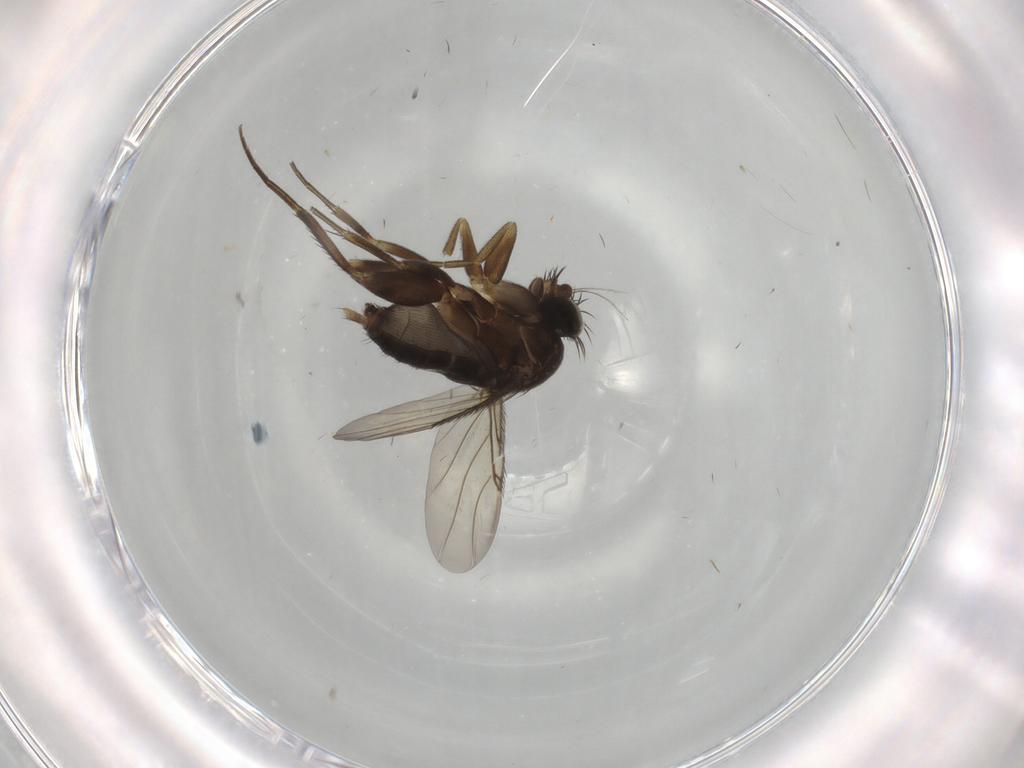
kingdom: Animalia
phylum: Arthropoda
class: Insecta
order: Diptera
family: Phoridae
